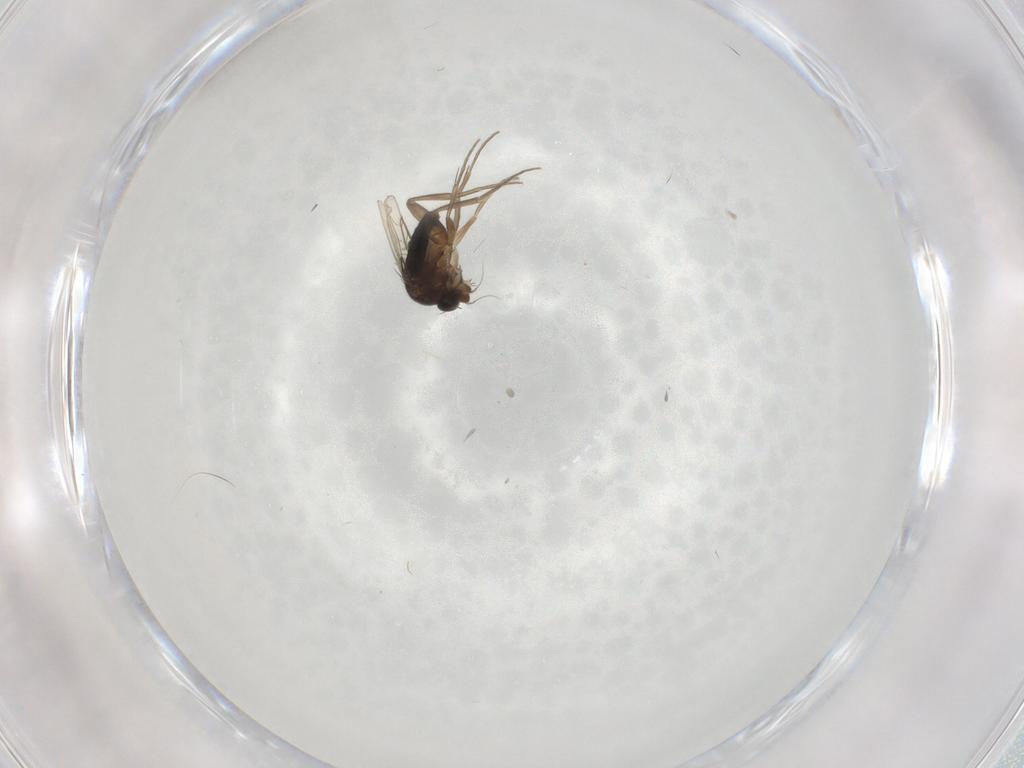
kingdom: Animalia
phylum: Arthropoda
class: Insecta
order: Diptera
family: Phoridae
